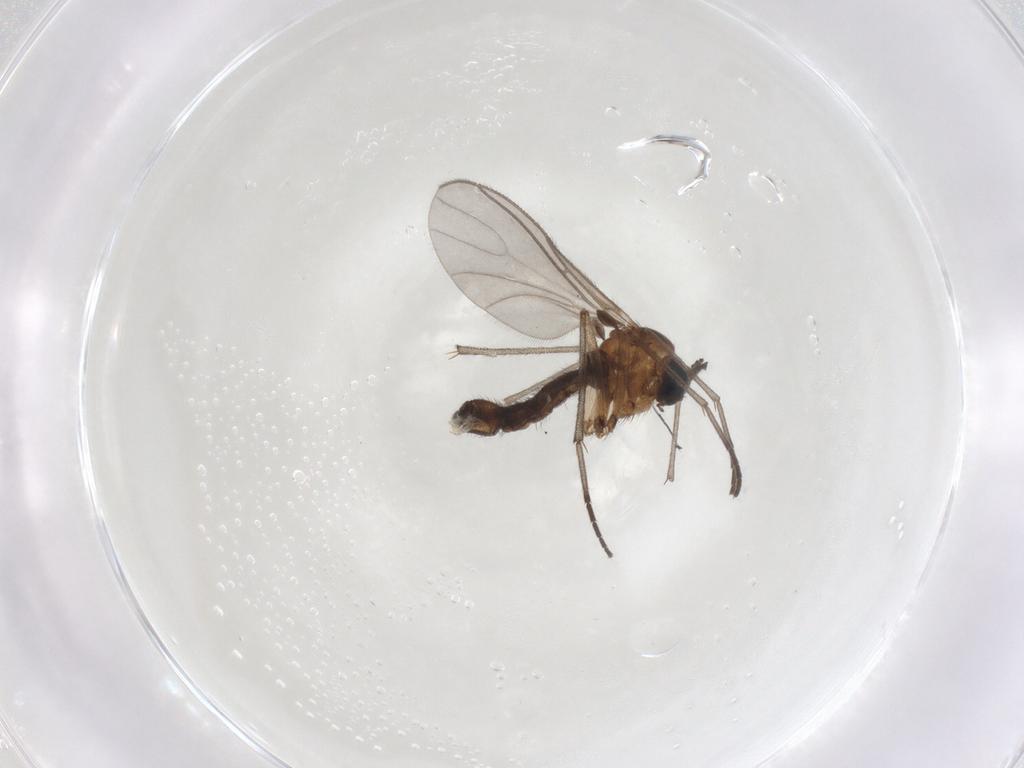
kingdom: Animalia
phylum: Arthropoda
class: Insecta
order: Diptera
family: Sciaridae
